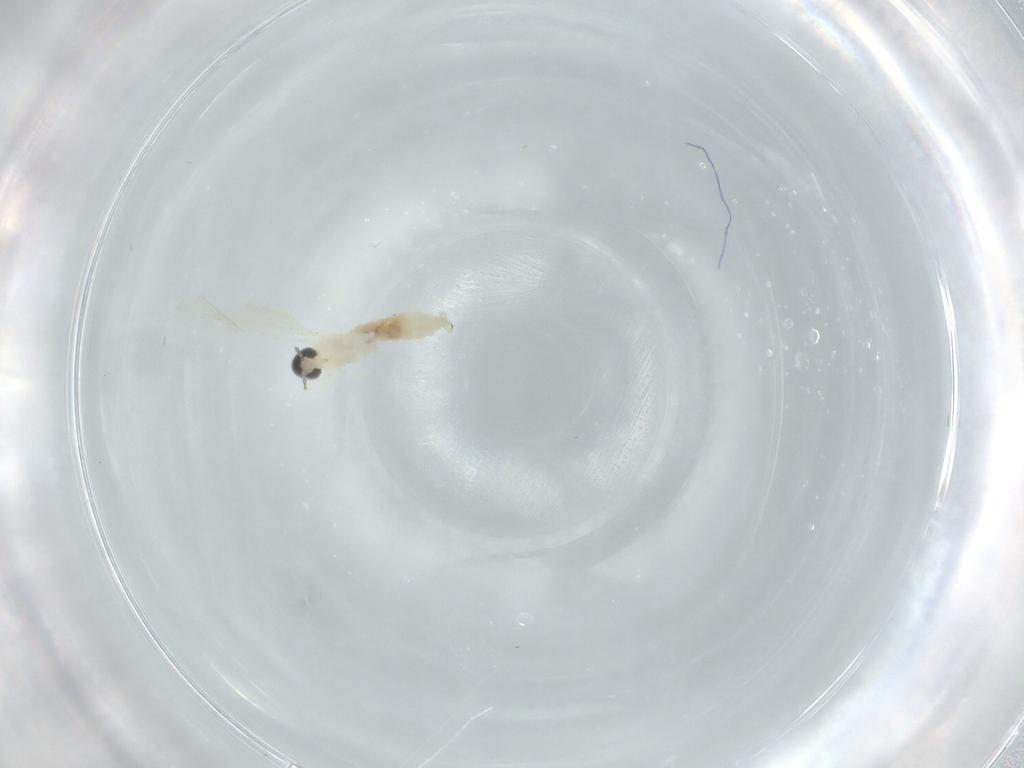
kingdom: Animalia
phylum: Arthropoda
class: Insecta
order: Diptera
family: Cecidomyiidae
